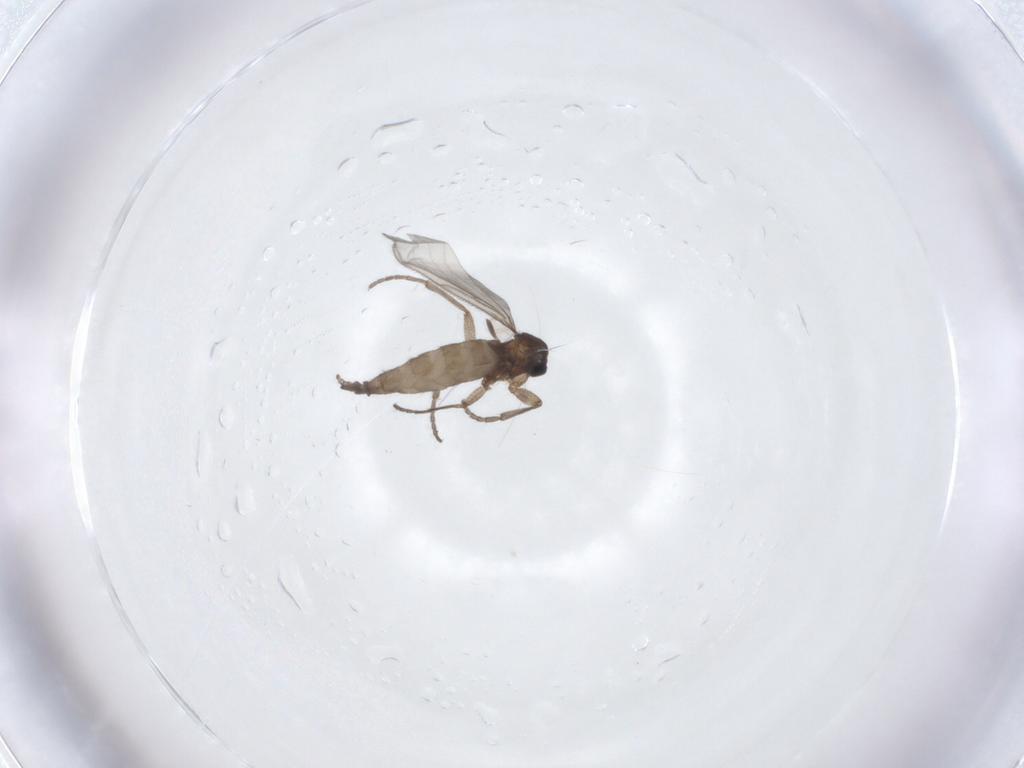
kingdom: Animalia
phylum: Arthropoda
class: Insecta
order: Diptera
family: Sciaridae
